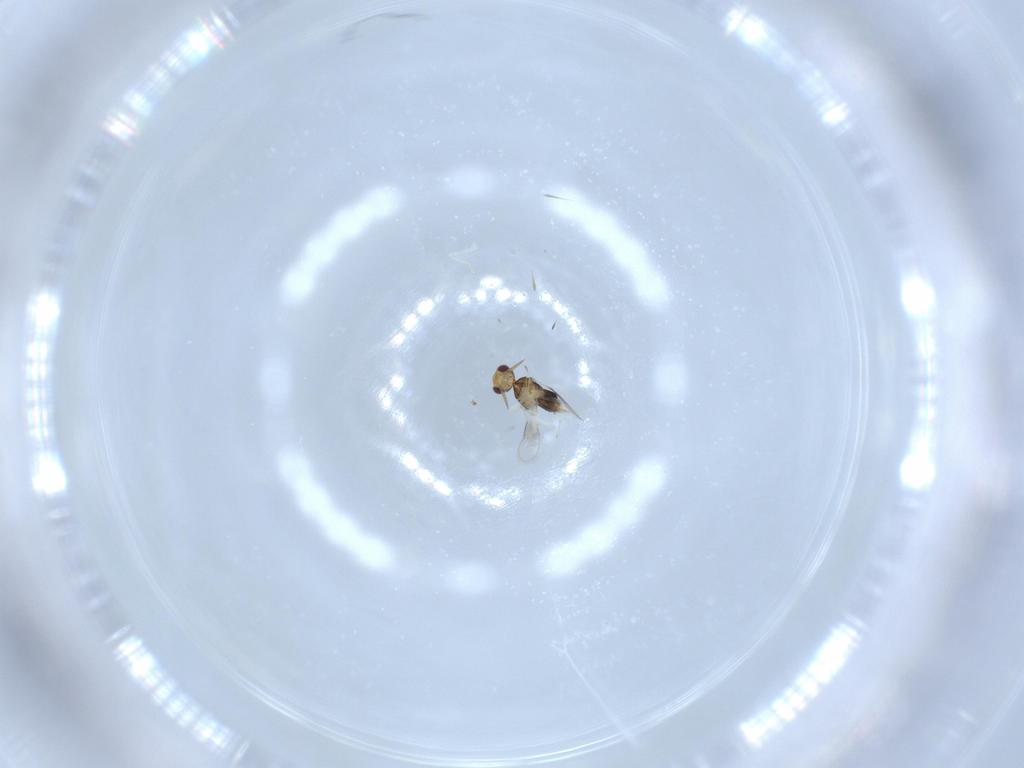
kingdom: Animalia
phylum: Arthropoda
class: Insecta
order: Hymenoptera
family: Aphelinidae
